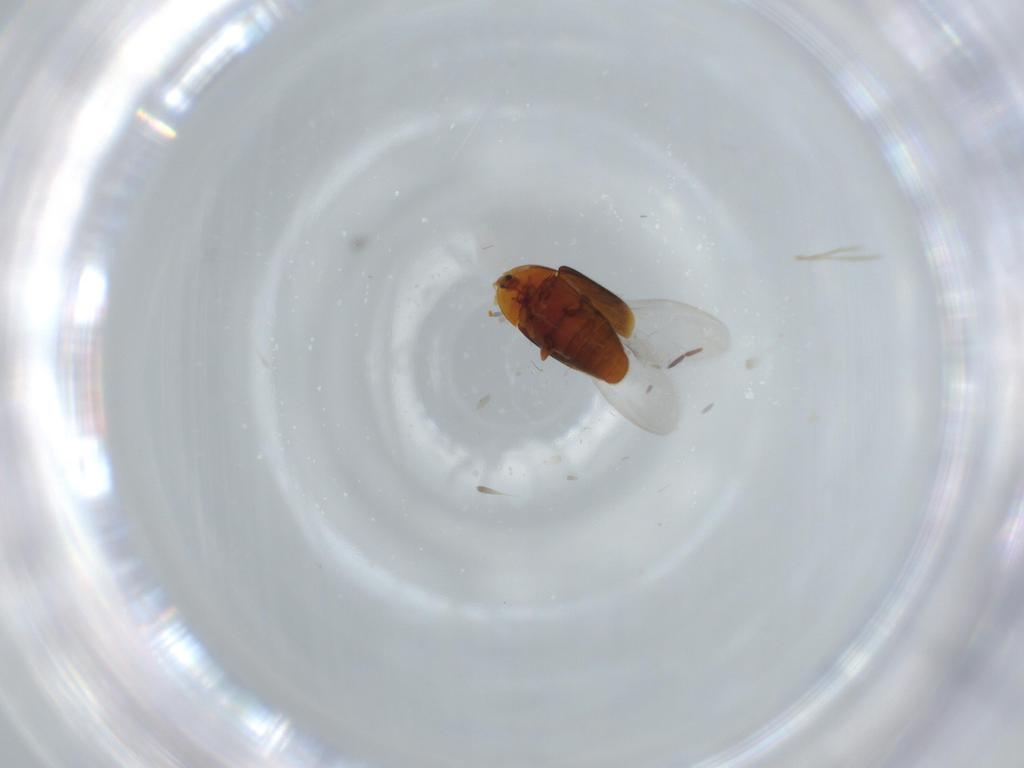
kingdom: Animalia
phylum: Arthropoda
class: Insecta
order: Coleoptera
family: Corylophidae
